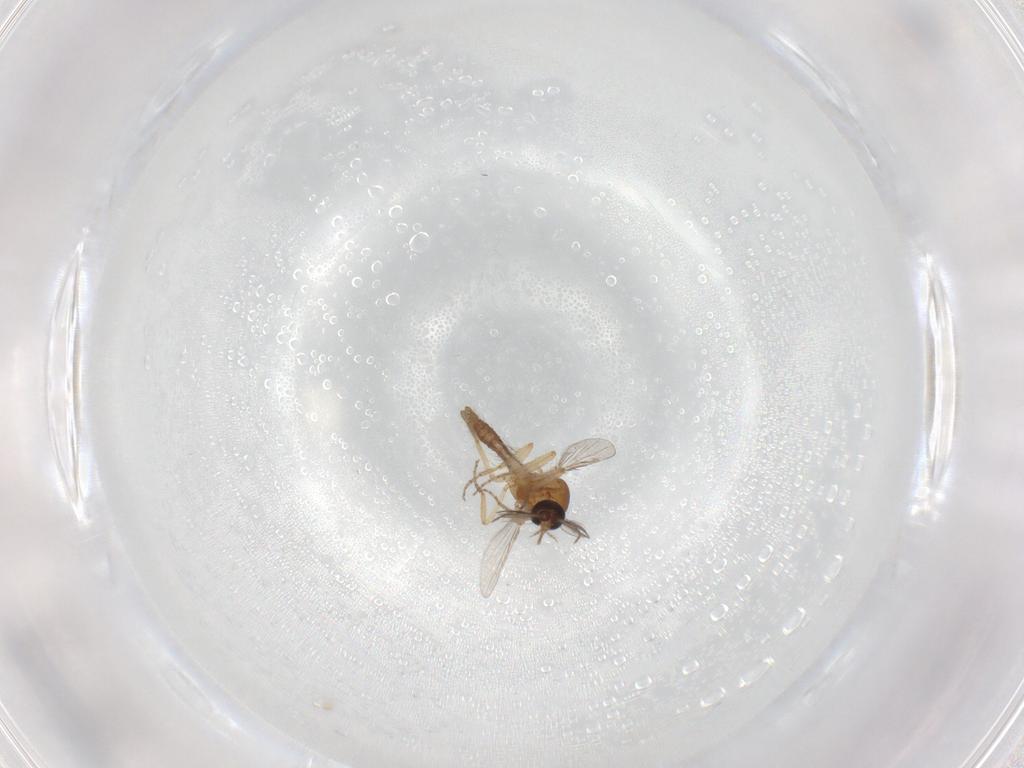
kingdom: Animalia
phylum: Arthropoda
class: Insecta
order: Diptera
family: Ceratopogonidae
